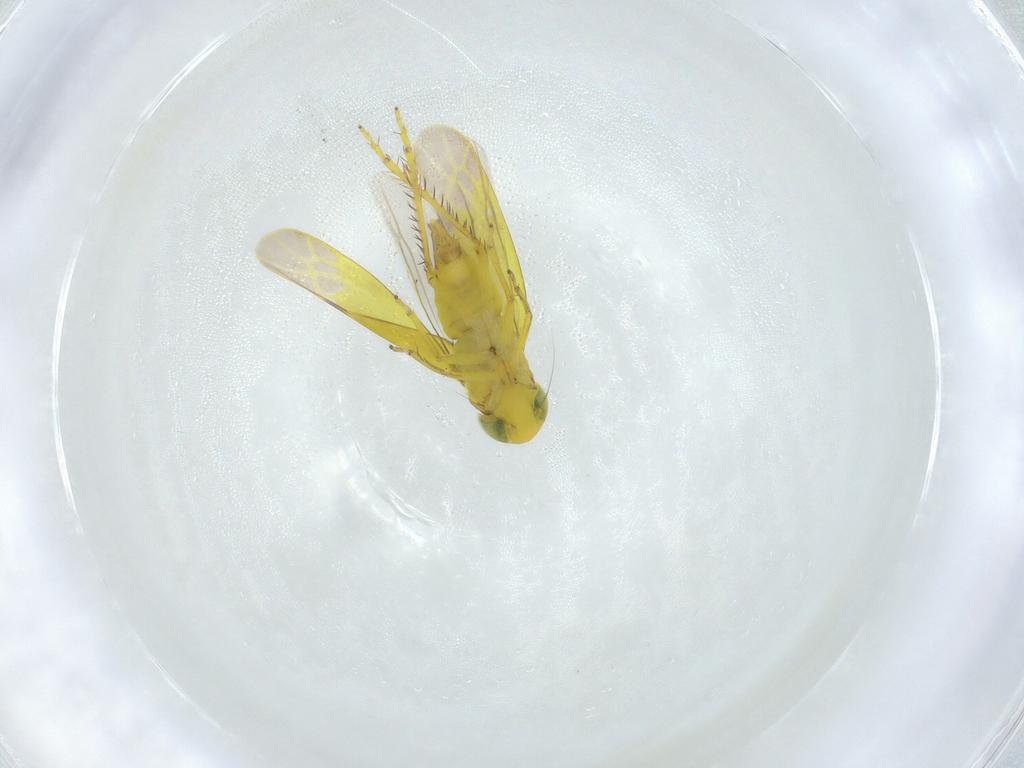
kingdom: Animalia
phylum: Arthropoda
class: Insecta
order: Hemiptera
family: Cicadellidae
